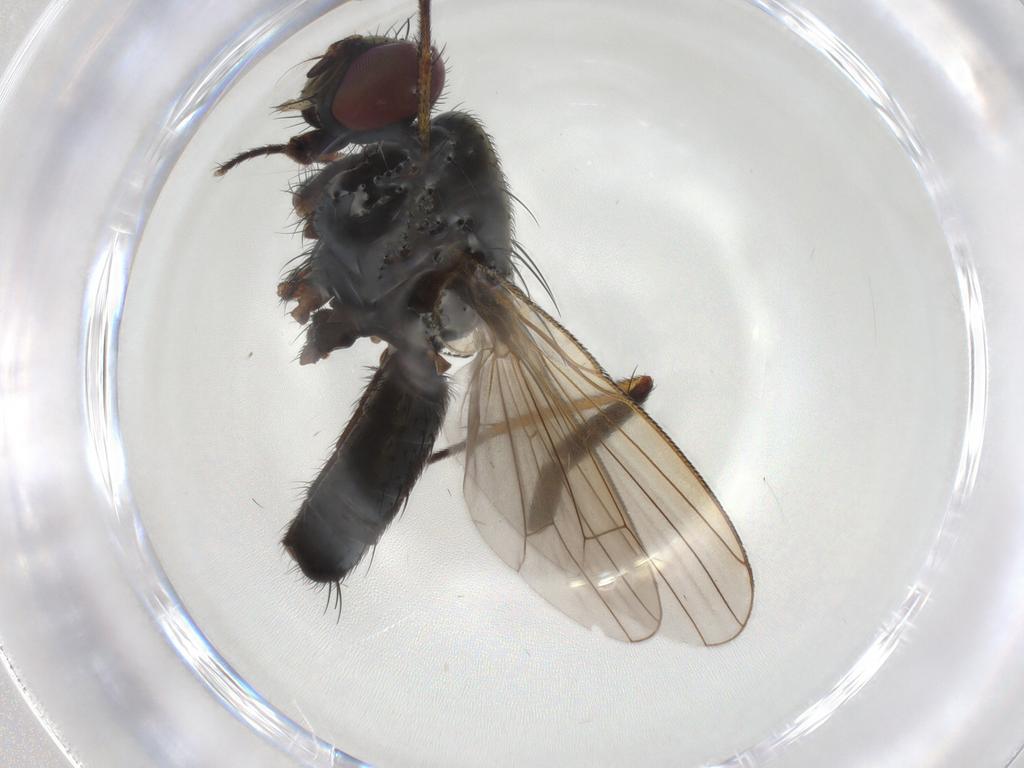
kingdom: Animalia
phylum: Arthropoda
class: Insecta
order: Diptera
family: Muscidae
